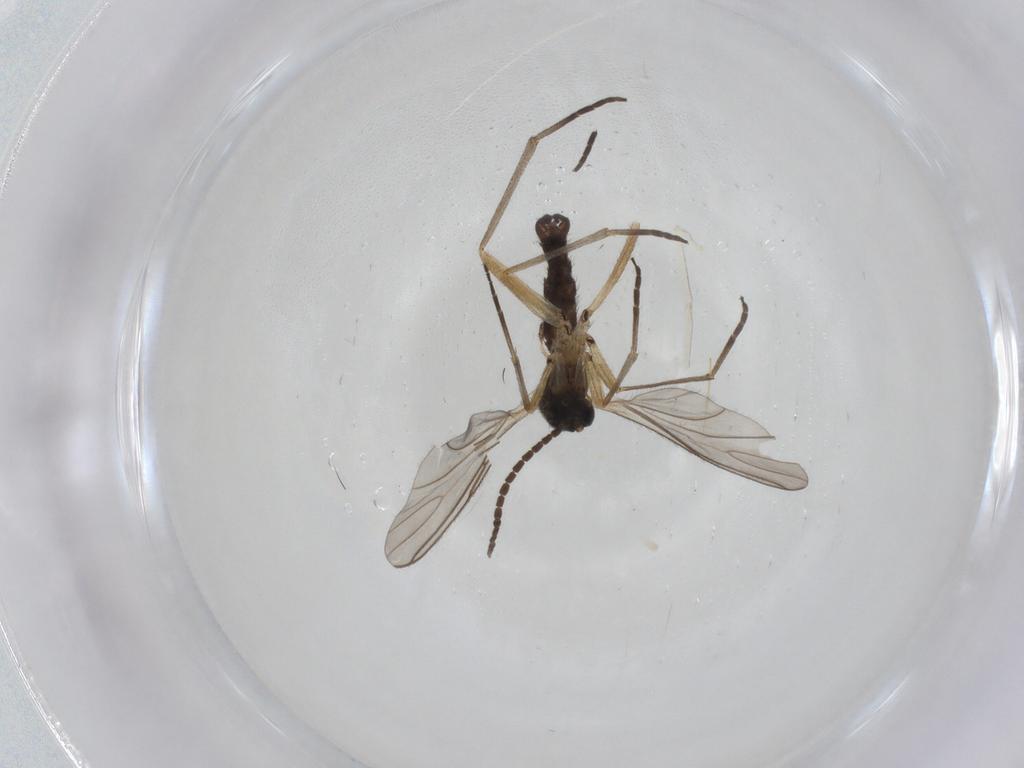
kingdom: Animalia
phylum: Arthropoda
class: Insecta
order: Diptera
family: Sciaridae
